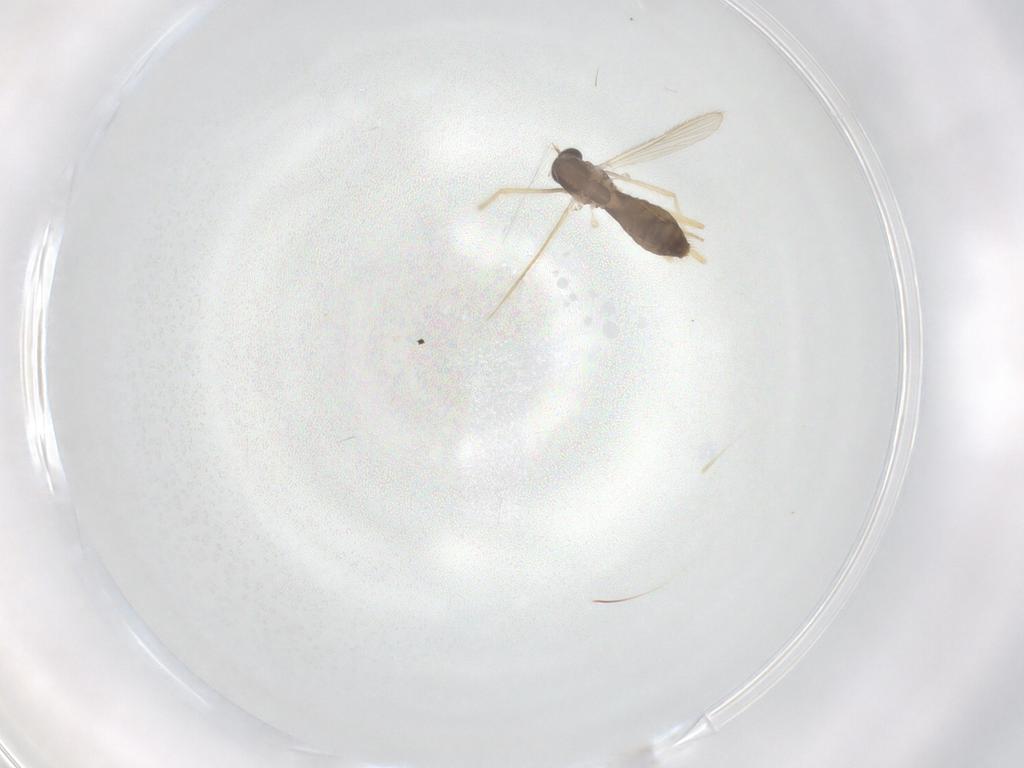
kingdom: Animalia
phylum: Arthropoda
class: Insecta
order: Diptera
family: Chironomidae
